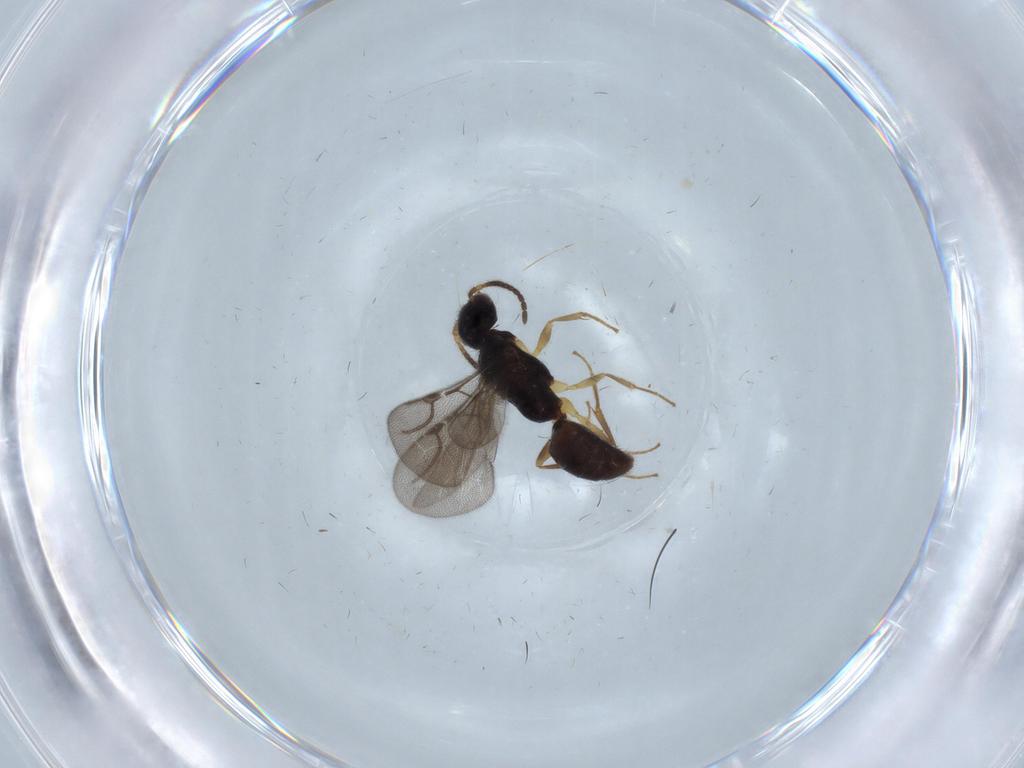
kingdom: Animalia
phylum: Arthropoda
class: Insecta
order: Hymenoptera
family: Bethylidae
